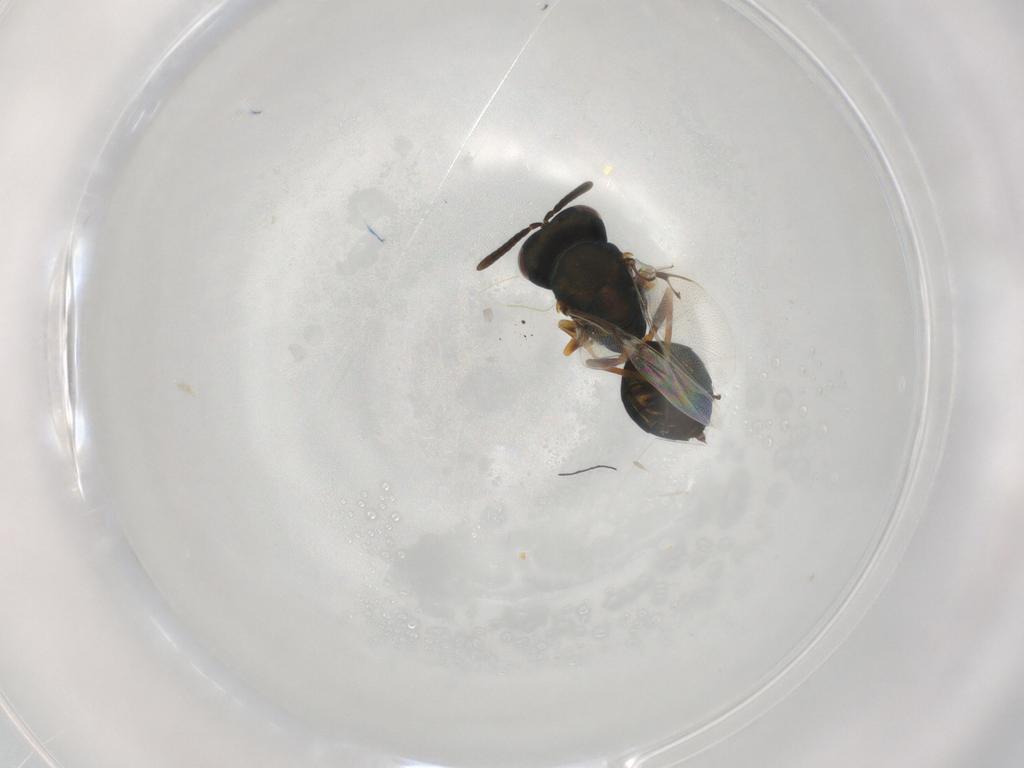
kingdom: Animalia
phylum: Arthropoda
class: Insecta
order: Hymenoptera
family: Pteromalidae
